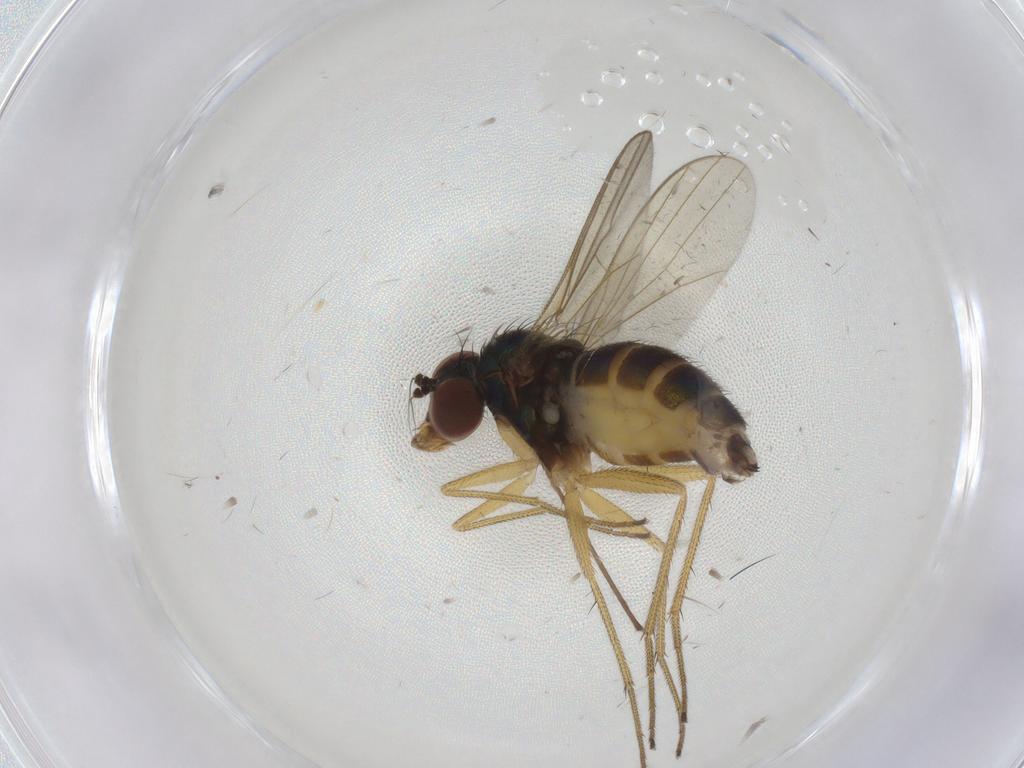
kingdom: Animalia
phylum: Arthropoda
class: Insecta
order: Diptera
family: Dolichopodidae
